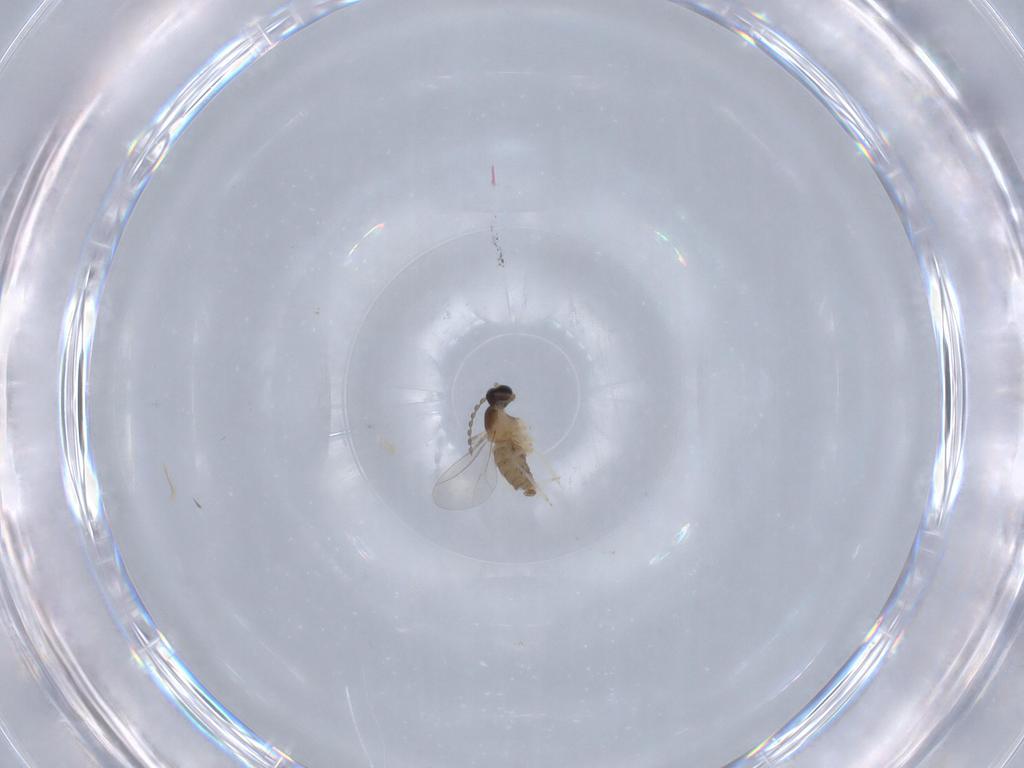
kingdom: Animalia
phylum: Arthropoda
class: Insecta
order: Diptera
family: Cecidomyiidae
